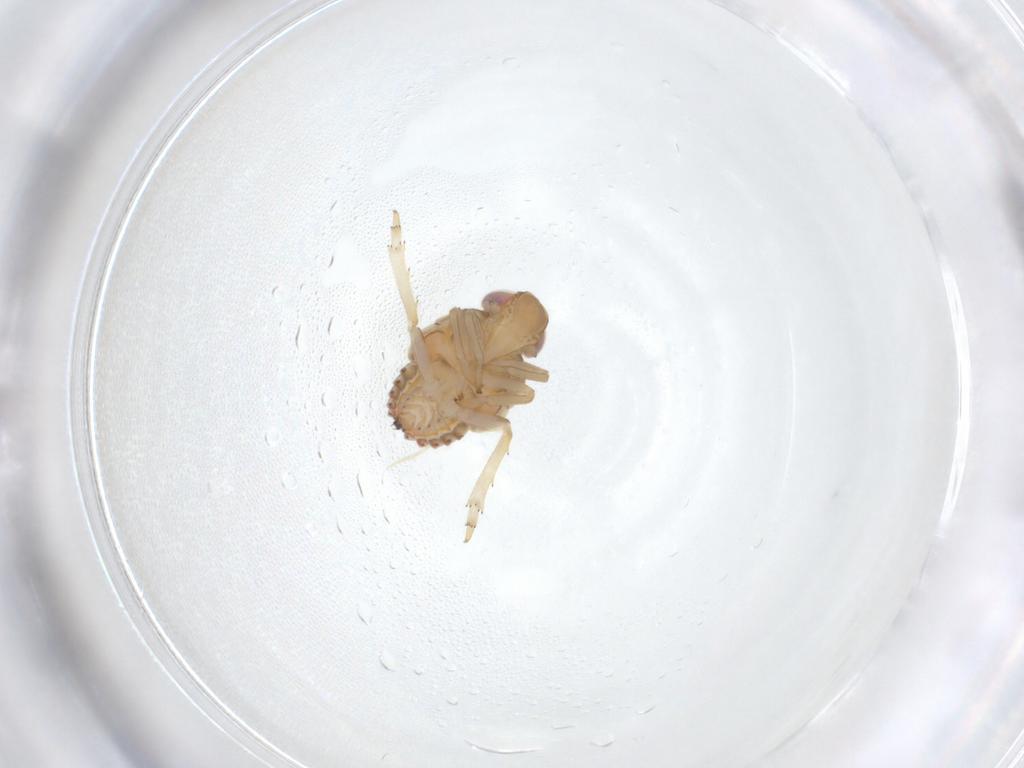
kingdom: Animalia
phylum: Arthropoda
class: Insecta
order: Hemiptera
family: Issidae
